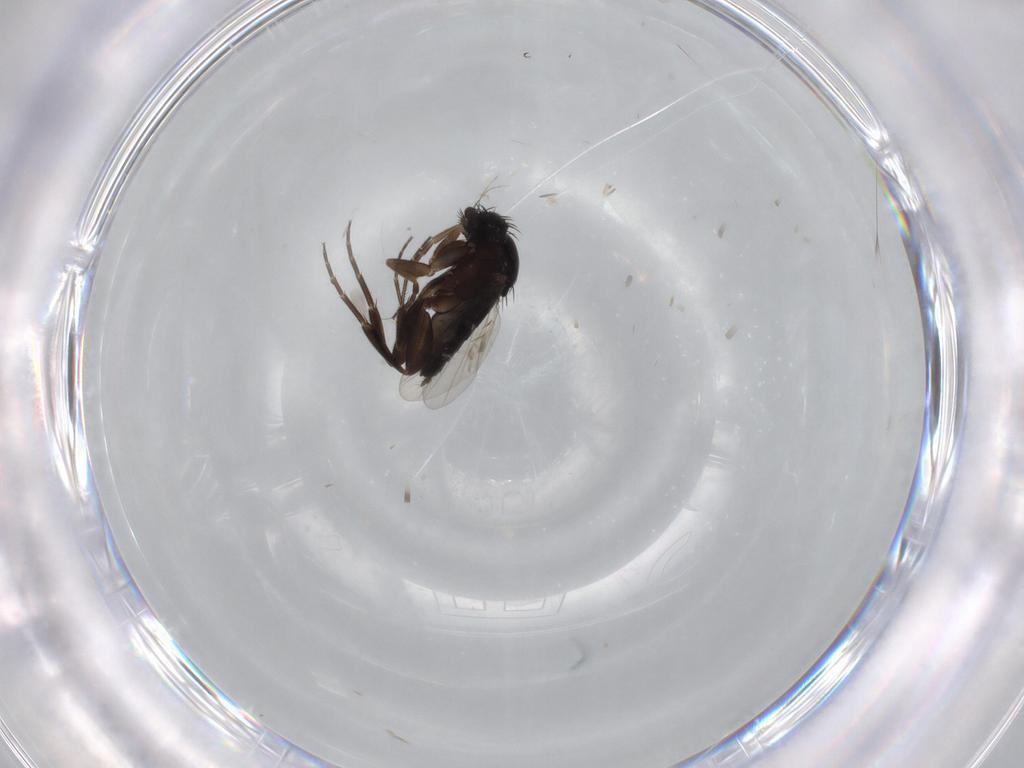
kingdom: Animalia
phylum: Arthropoda
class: Insecta
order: Diptera
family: Phoridae
